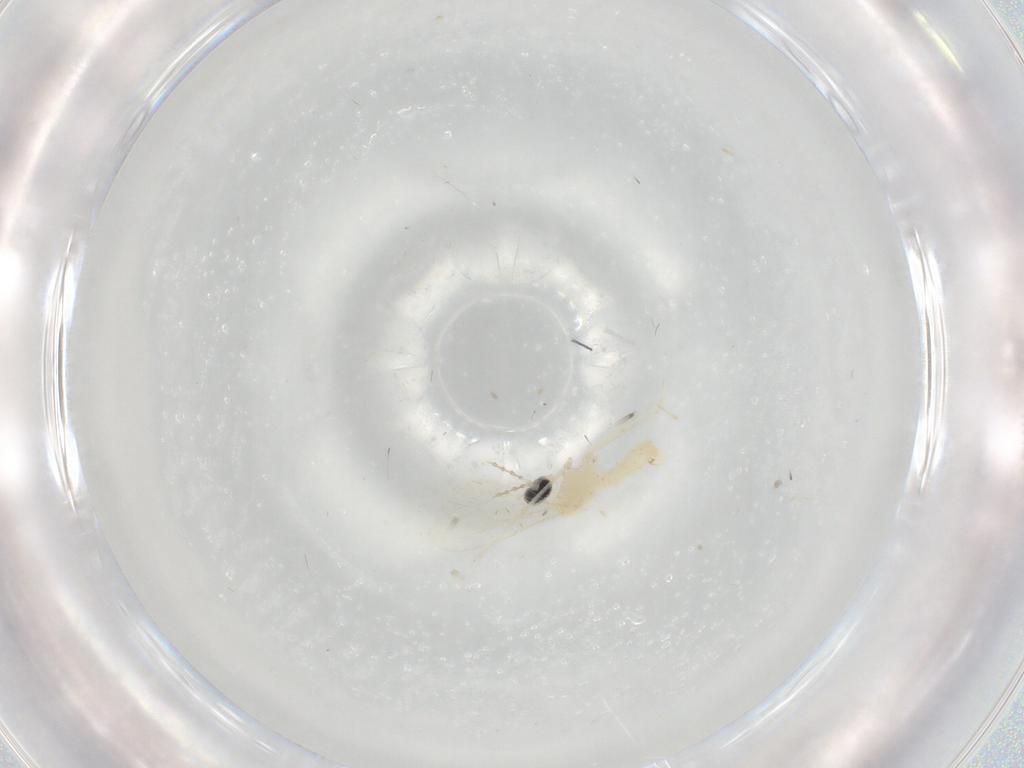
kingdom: Animalia
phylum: Arthropoda
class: Insecta
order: Diptera
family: Cecidomyiidae
